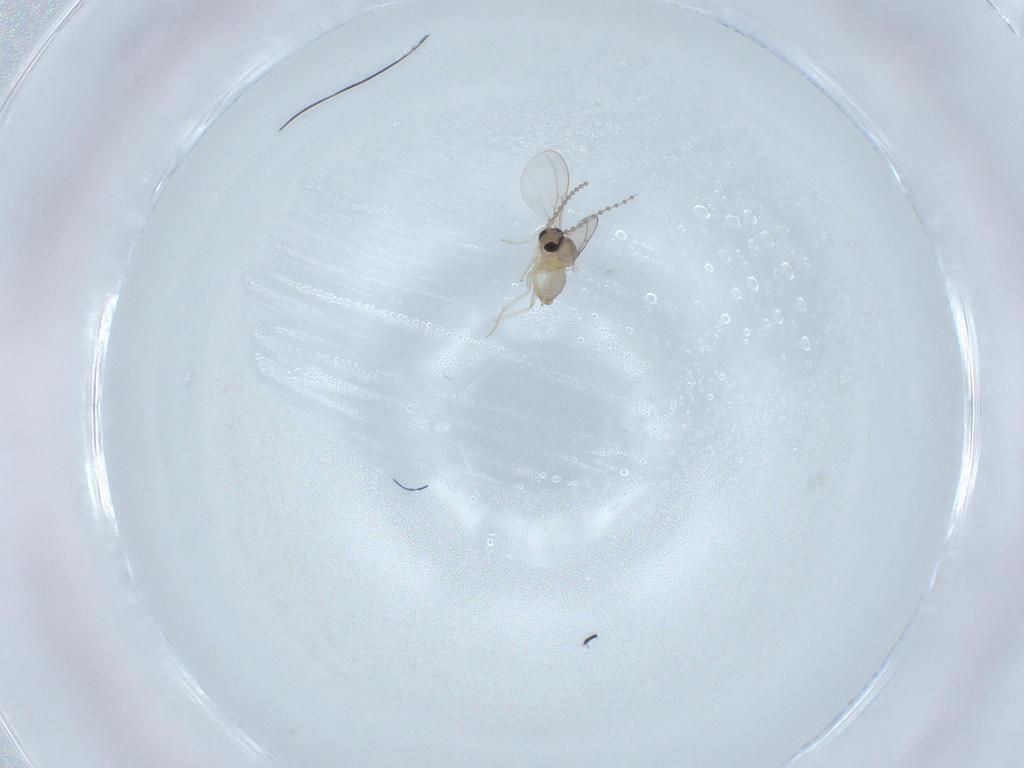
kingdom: Animalia
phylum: Arthropoda
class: Insecta
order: Diptera
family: Cecidomyiidae
